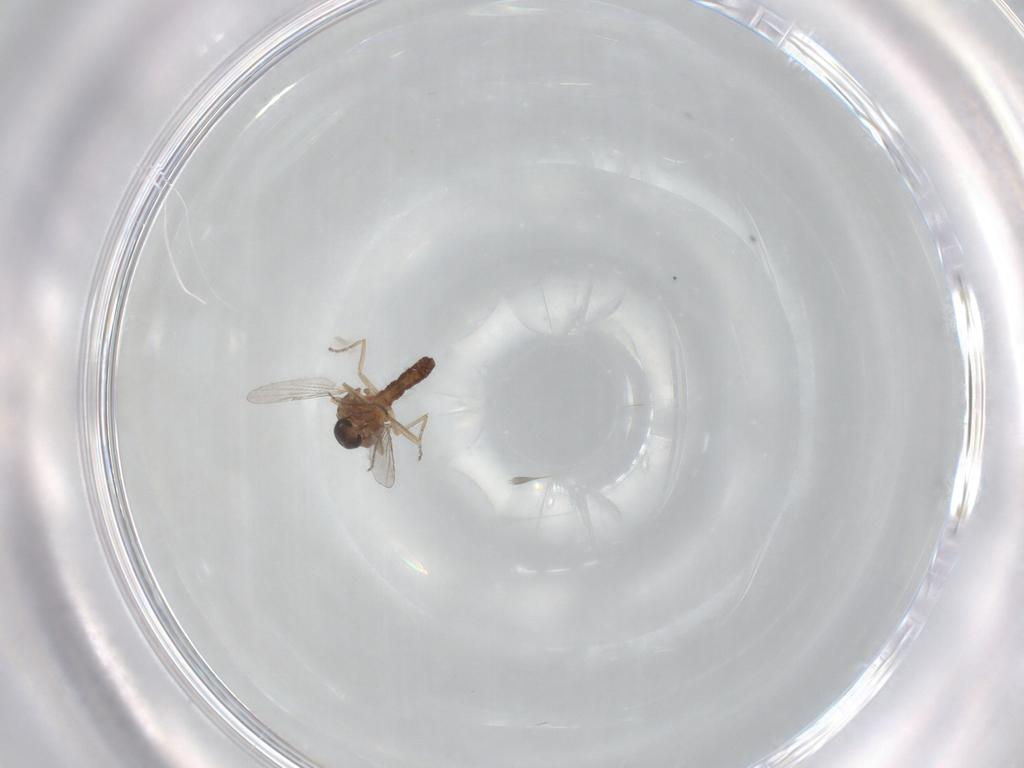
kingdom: Animalia
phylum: Arthropoda
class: Insecta
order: Diptera
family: Ceratopogonidae
